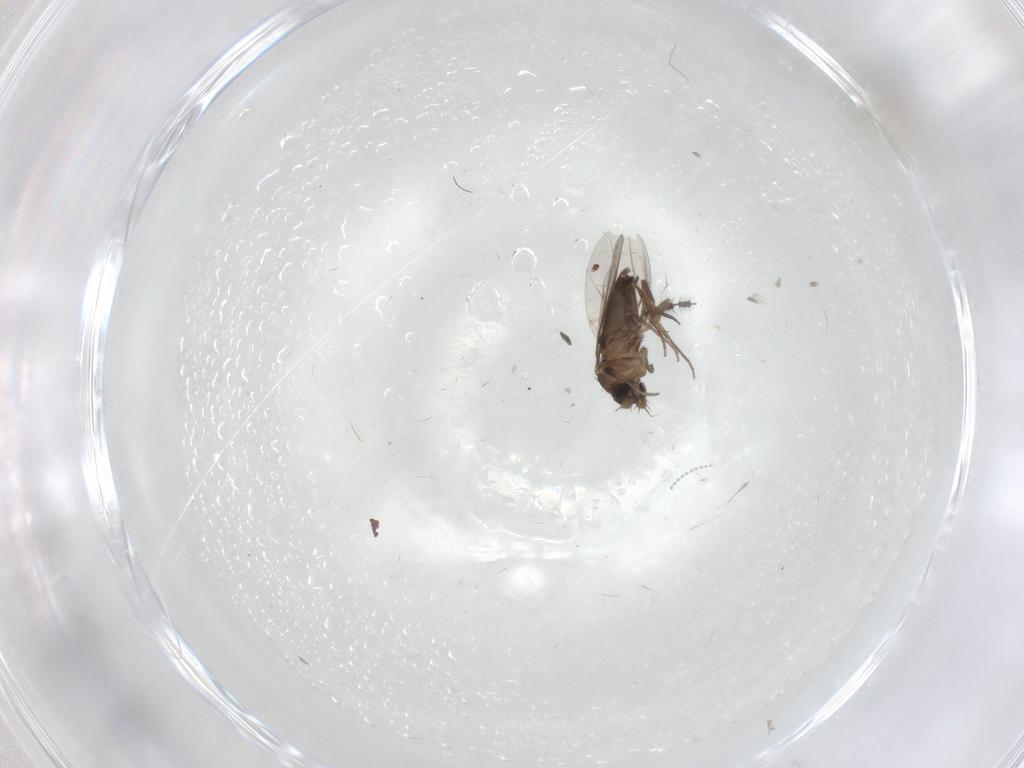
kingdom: Animalia
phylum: Arthropoda
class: Insecta
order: Diptera
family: Phoridae
